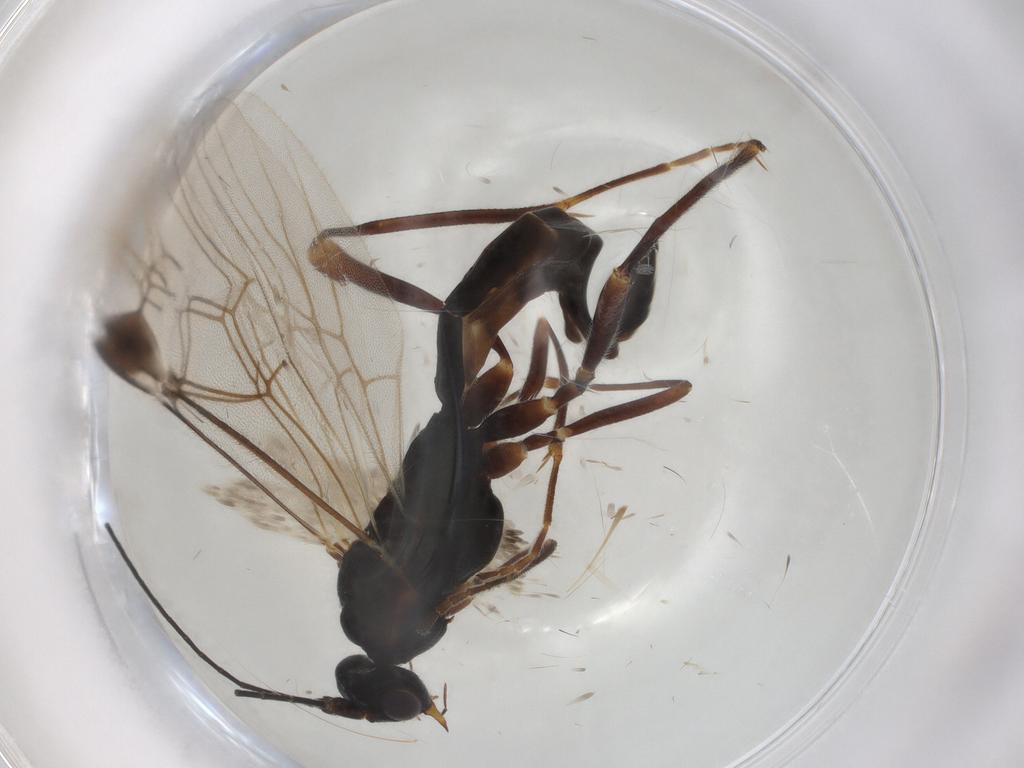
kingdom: Animalia
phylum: Arthropoda
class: Insecta
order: Hymenoptera
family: Braconidae
